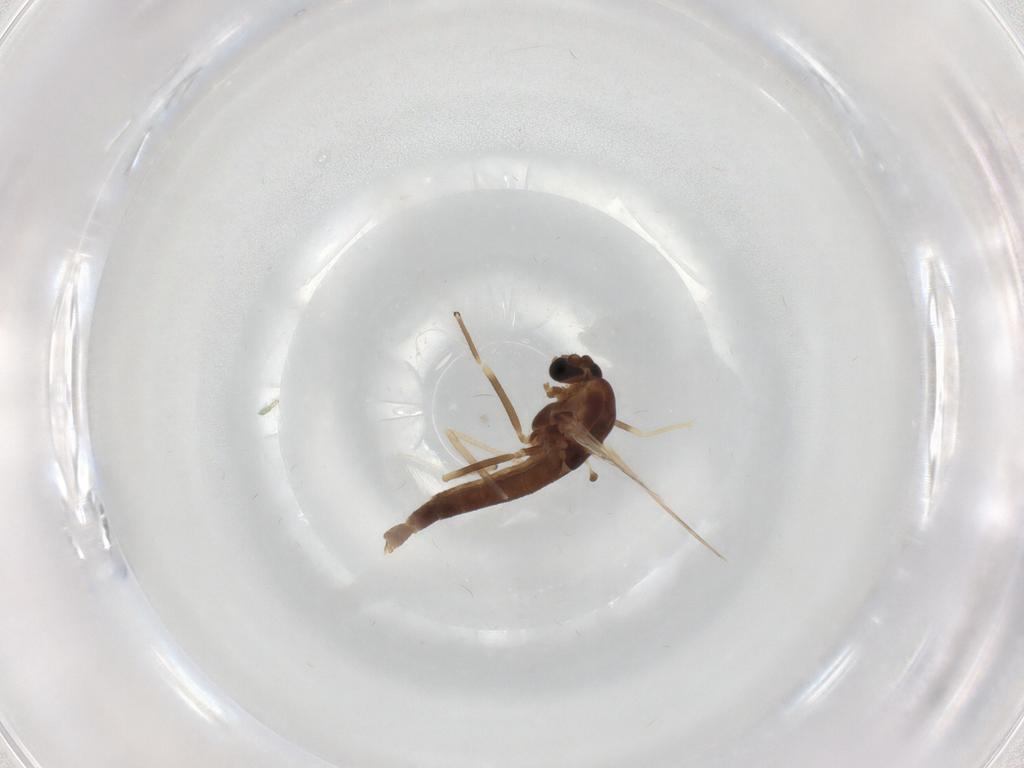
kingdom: Animalia
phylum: Arthropoda
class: Insecta
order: Diptera
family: Chironomidae
